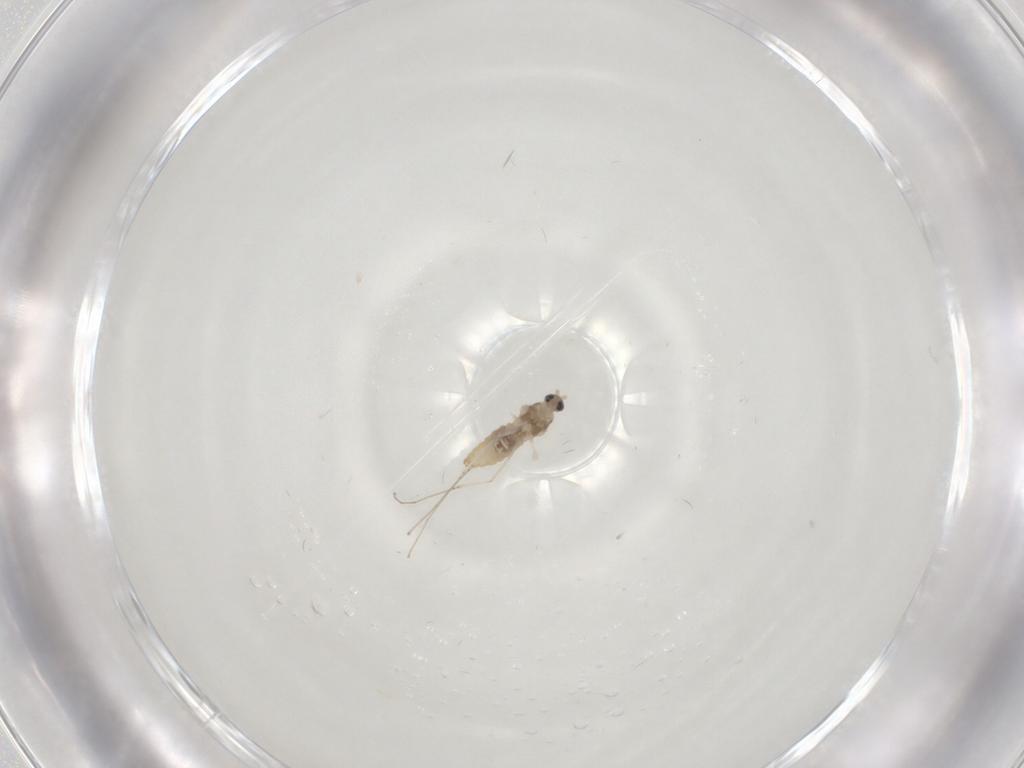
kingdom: Animalia
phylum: Arthropoda
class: Insecta
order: Diptera
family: Cecidomyiidae
